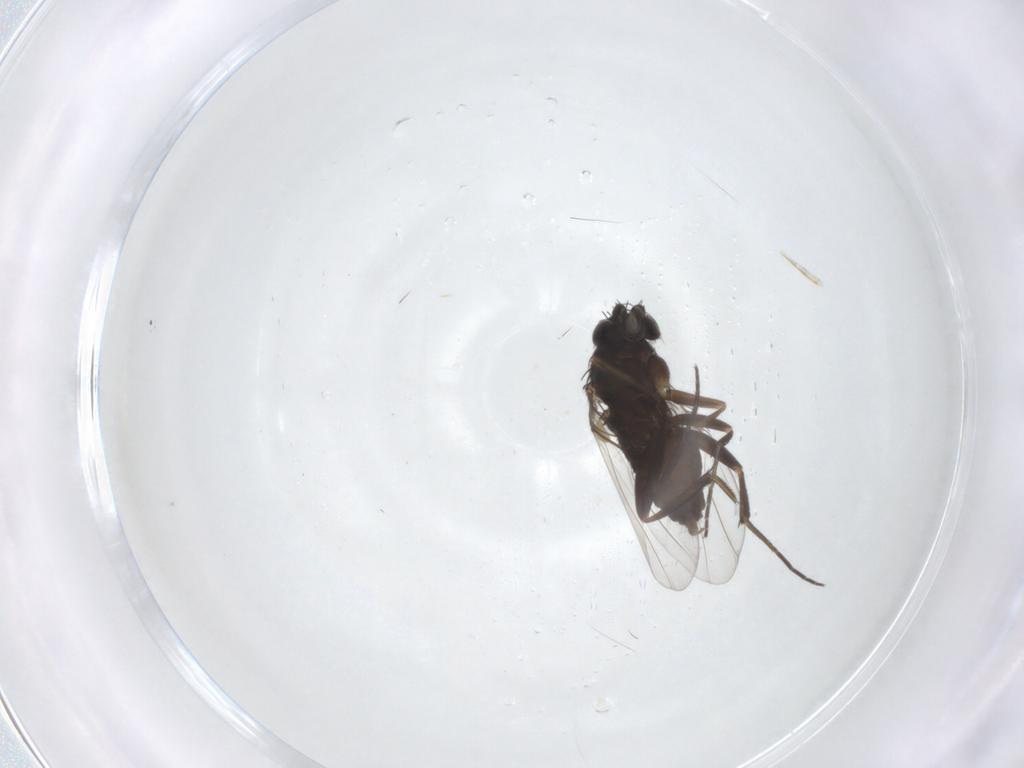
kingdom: Animalia
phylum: Arthropoda
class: Insecta
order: Diptera
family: Phoridae
